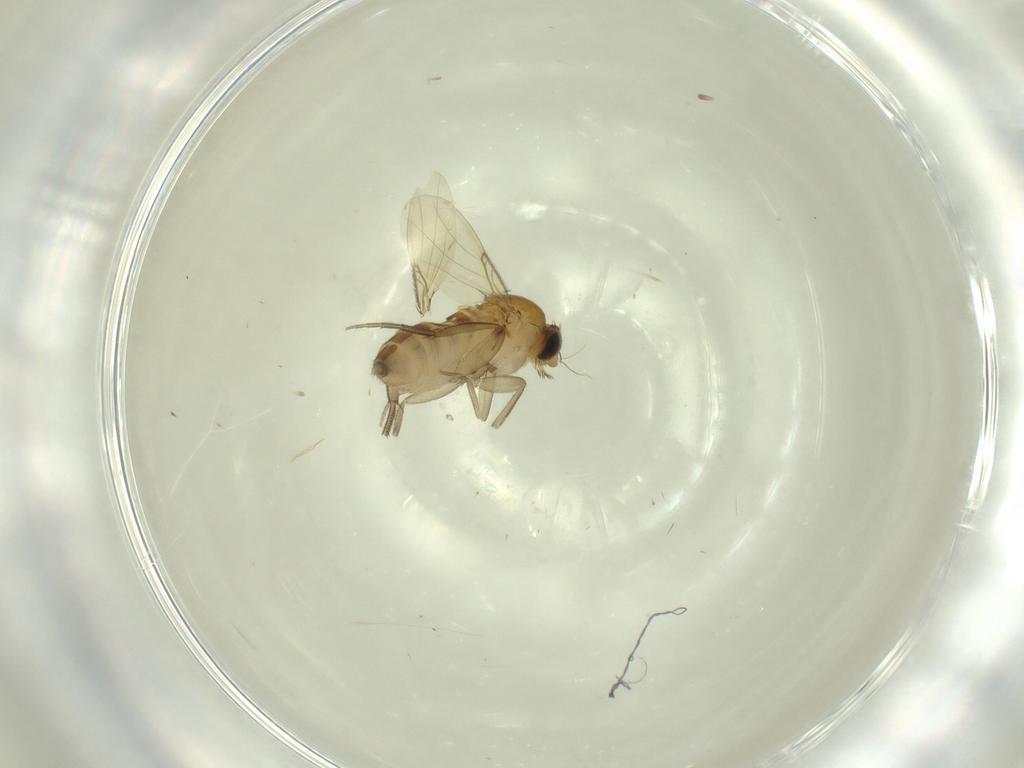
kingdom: Animalia
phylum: Arthropoda
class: Insecta
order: Diptera
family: Phoridae
